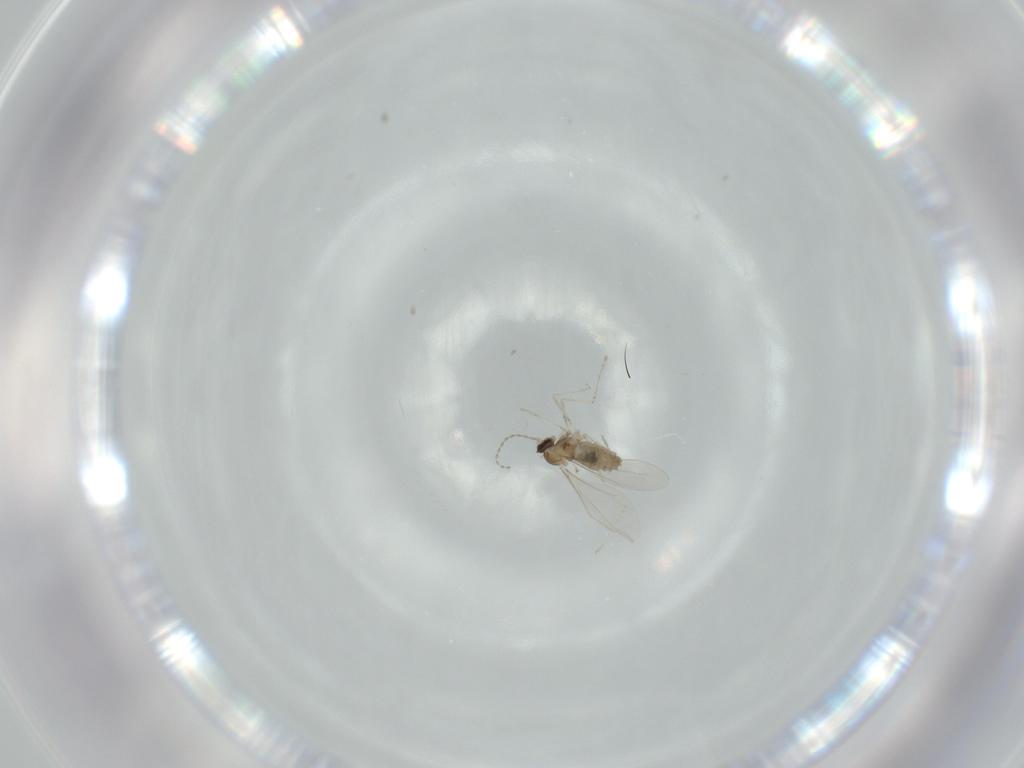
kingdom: Animalia
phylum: Arthropoda
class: Insecta
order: Diptera
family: Cecidomyiidae
